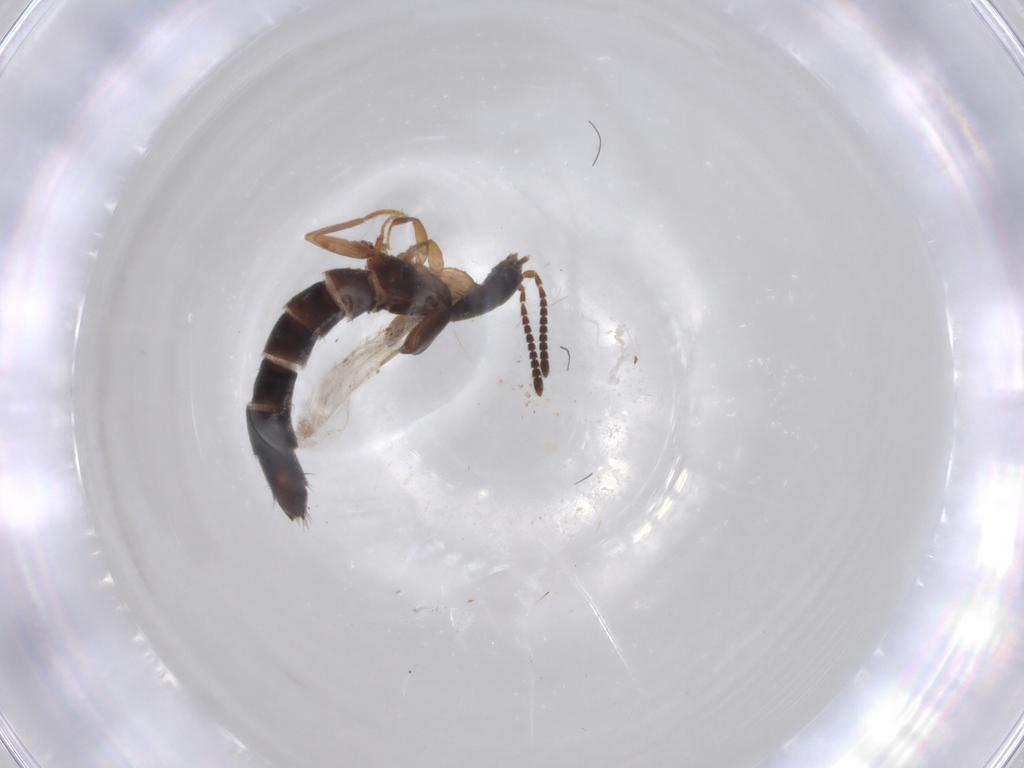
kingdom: Animalia
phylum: Arthropoda
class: Insecta
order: Coleoptera
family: Staphylinidae
